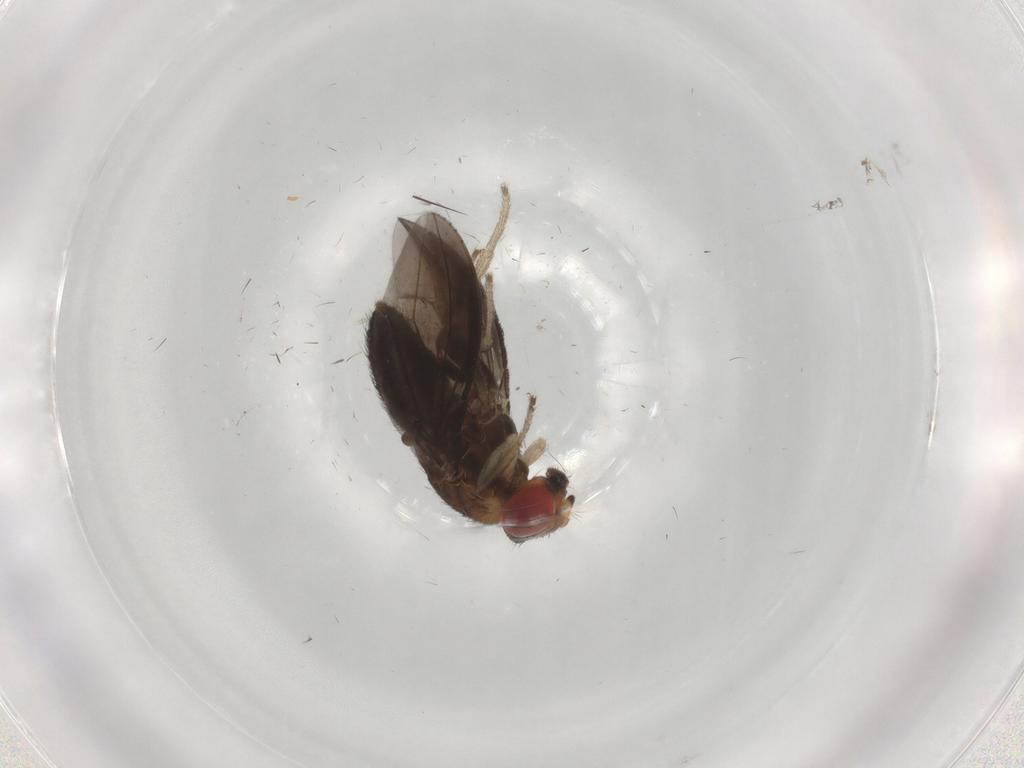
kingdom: Animalia
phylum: Arthropoda
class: Insecta
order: Diptera
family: Drosophilidae
